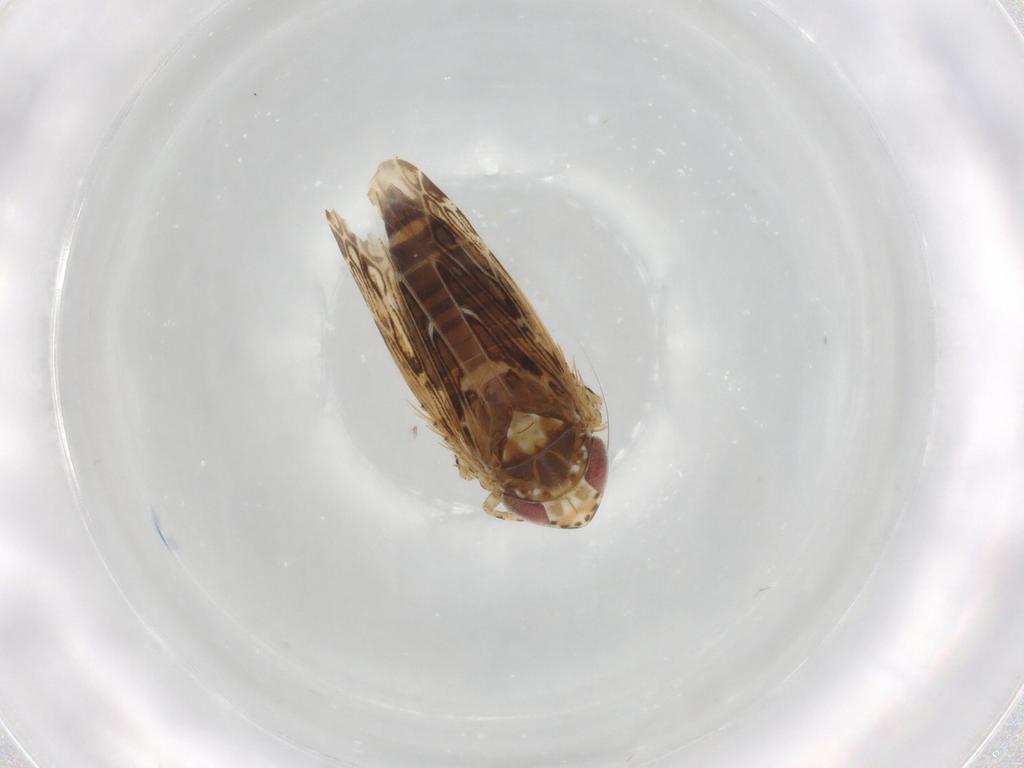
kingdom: Animalia
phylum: Arthropoda
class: Insecta
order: Hemiptera
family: Cicadellidae
